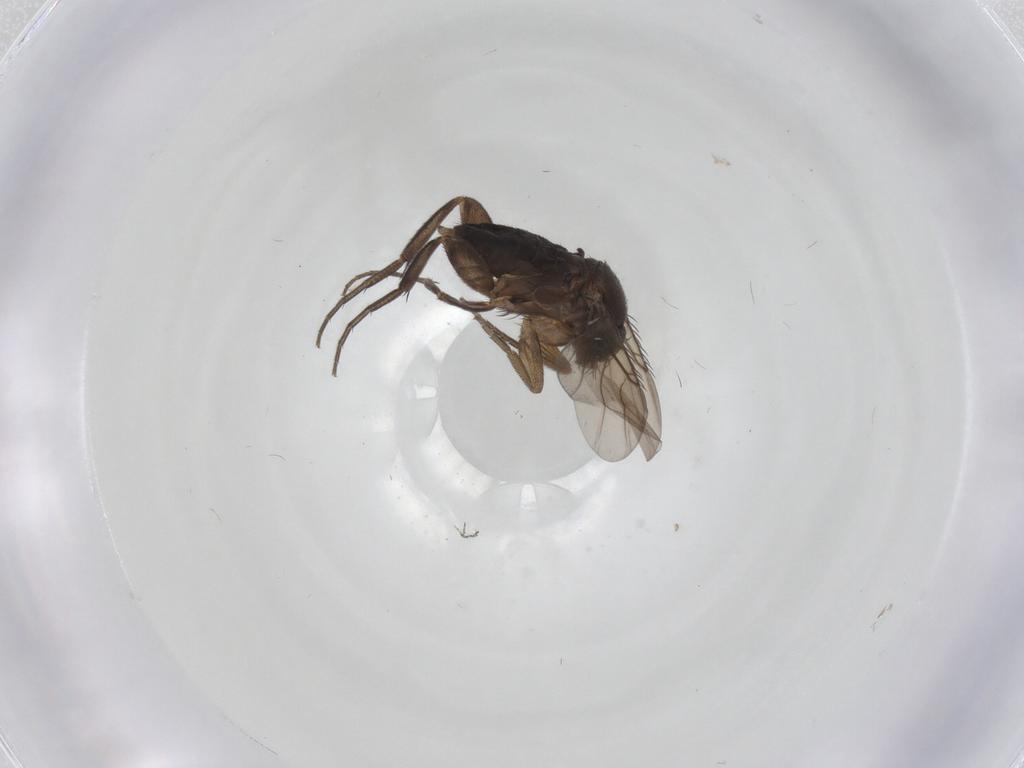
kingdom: Animalia
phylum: Arthropoda
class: Insecta
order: Diptera
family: Phoridae
